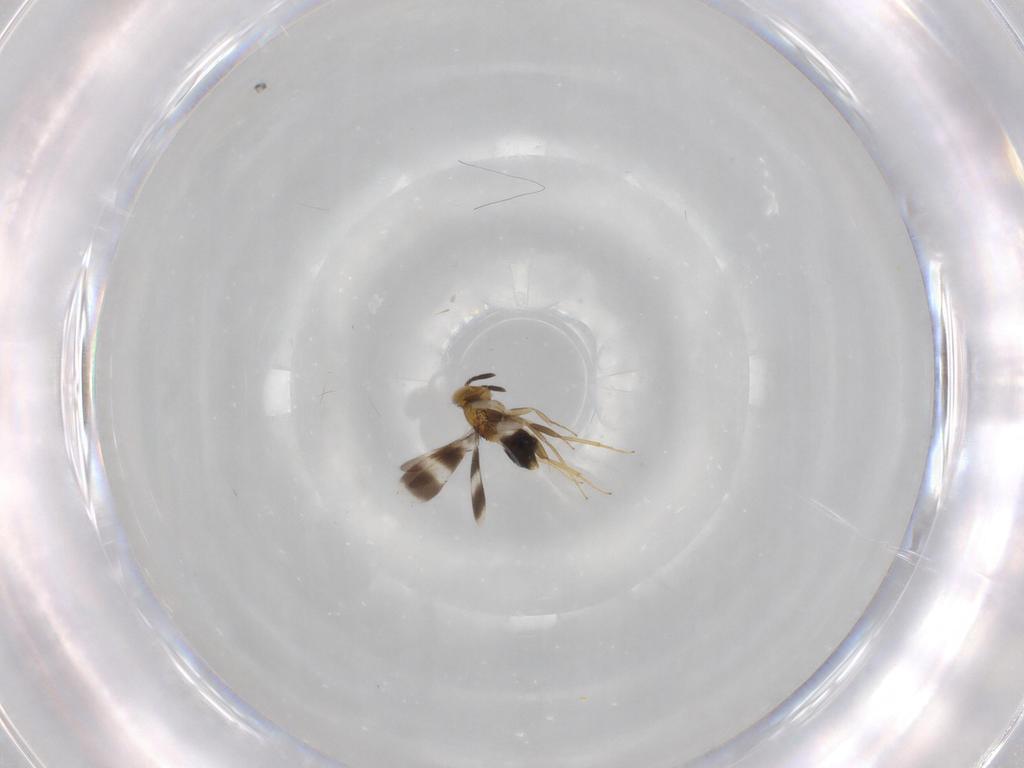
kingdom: Animalia
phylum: Arthropoda
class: Insecta
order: Hymenoptera
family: Aphelinidae
